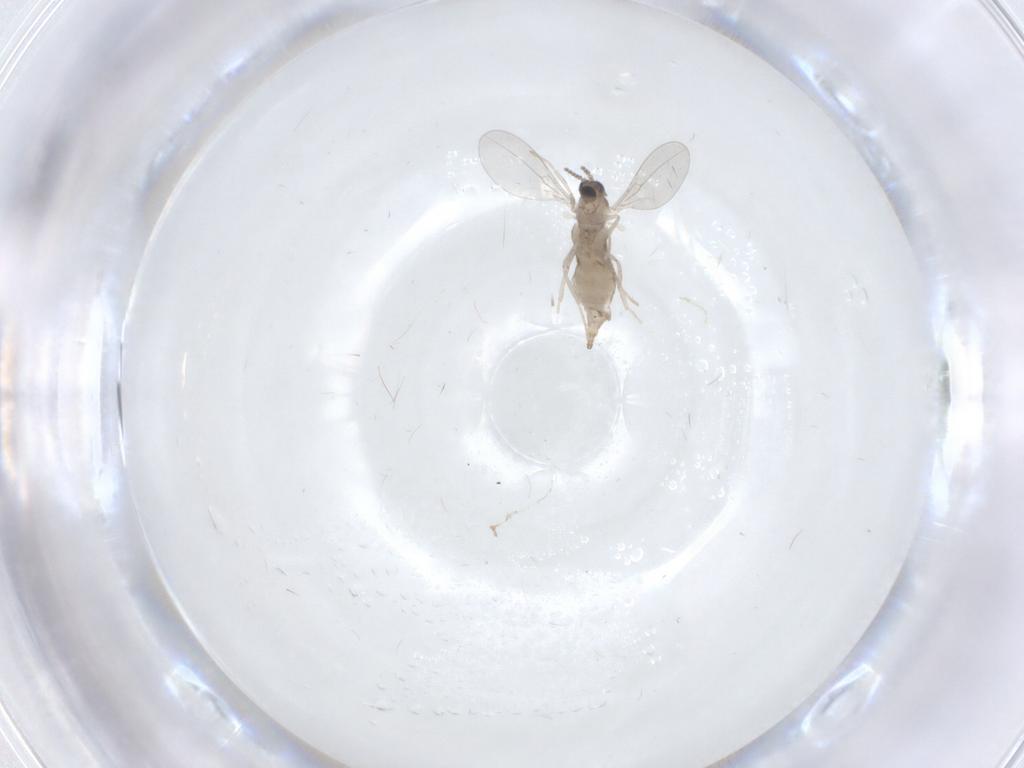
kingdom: Animalia
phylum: Arthropoda
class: Insecta
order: Diptera
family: Cecidomyiidae
